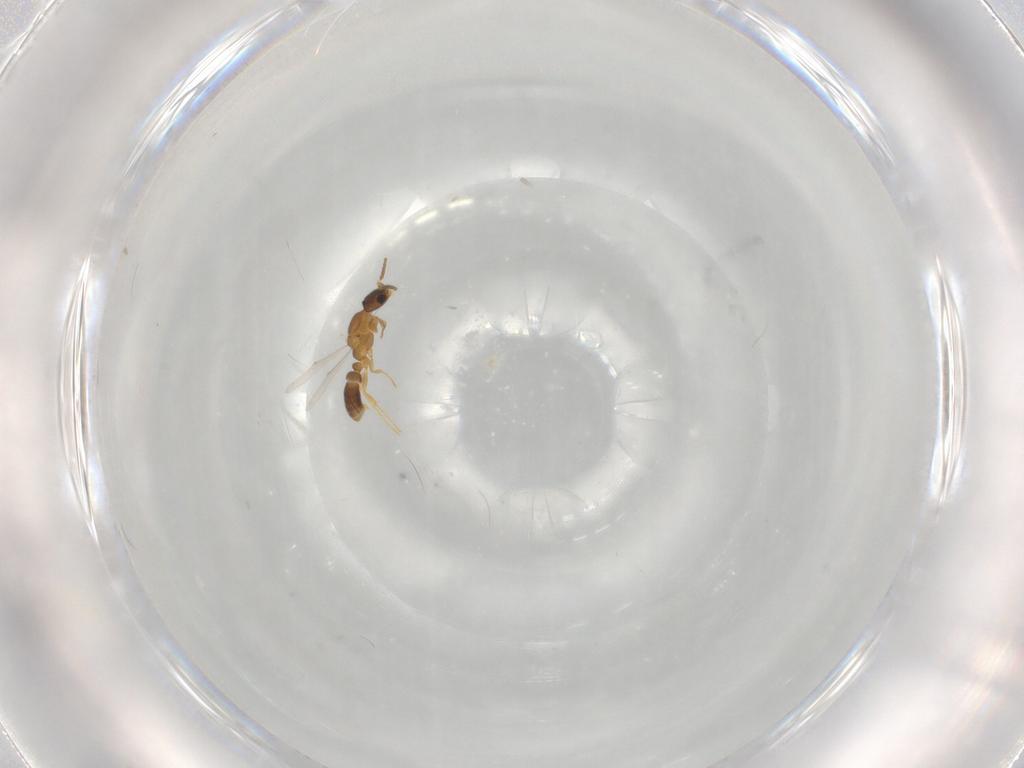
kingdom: Animalia
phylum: Arthropoda
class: Insecta
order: Hymenoptera
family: Formicidae
